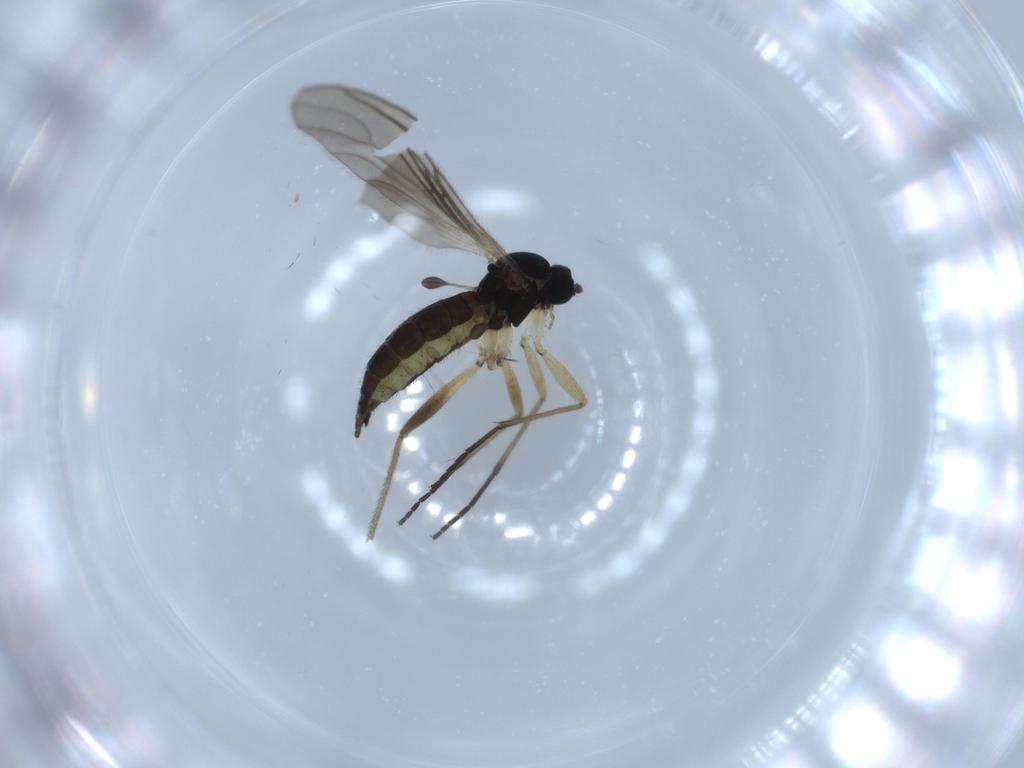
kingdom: Animalia
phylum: Arthropoda
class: Insecta
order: Diptera
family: Sciaridae
